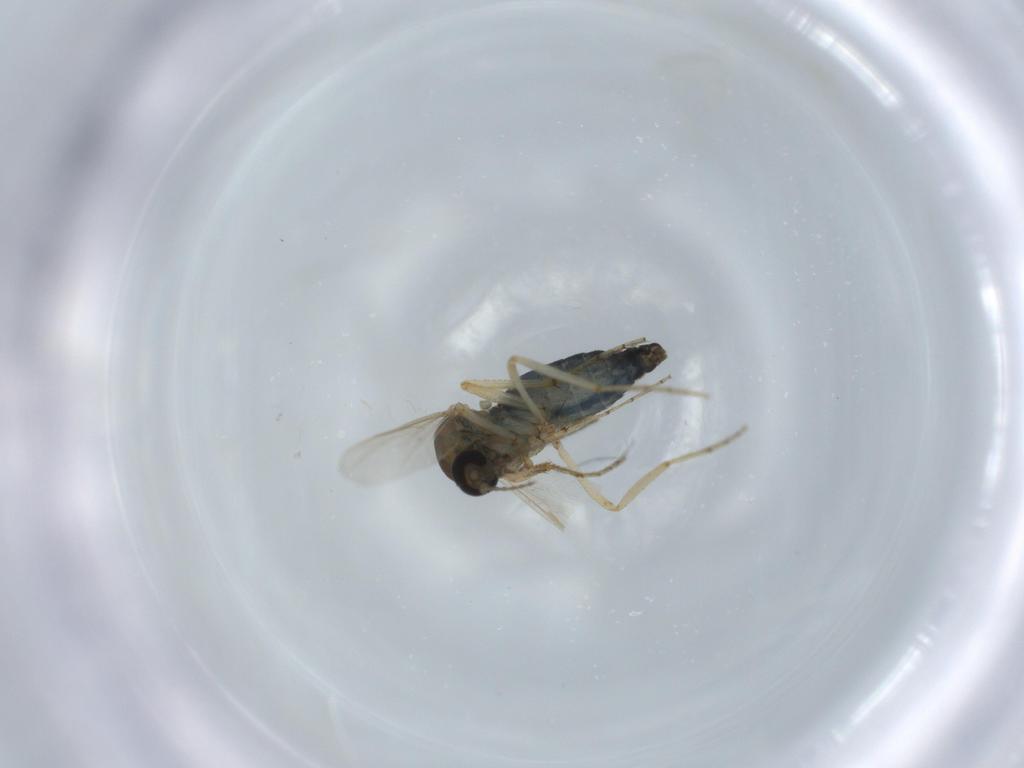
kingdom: Animalia
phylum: Arthropoda
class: Insecta
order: Diptera
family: Ceratopogonidae
